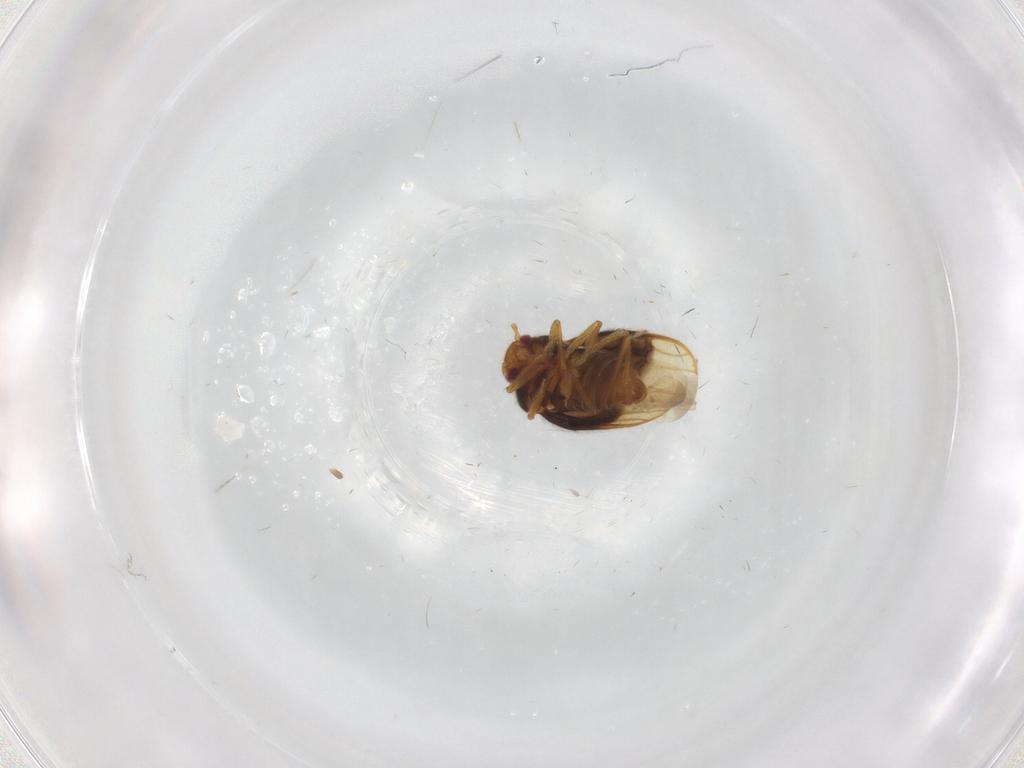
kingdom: Animalia
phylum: Arthropoda
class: Insecta
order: Hemiptera
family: Schizopteridae
